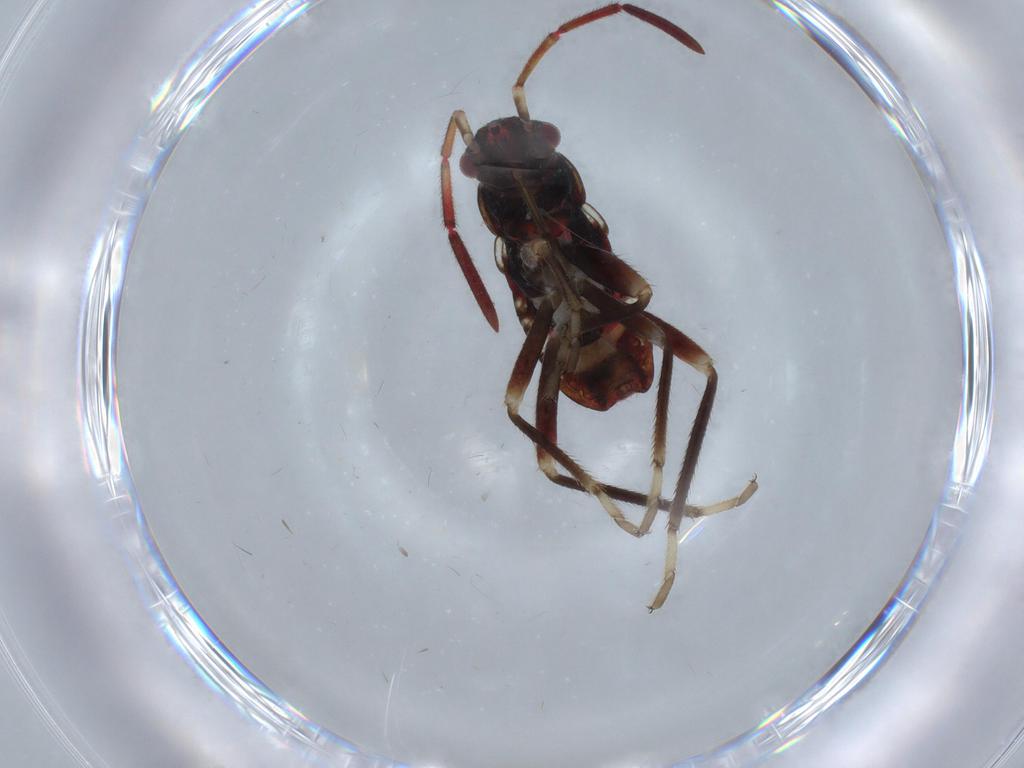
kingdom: Animalia
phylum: Arthropoda
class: Insecta
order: Hemiptera
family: Rhyparochromidae
